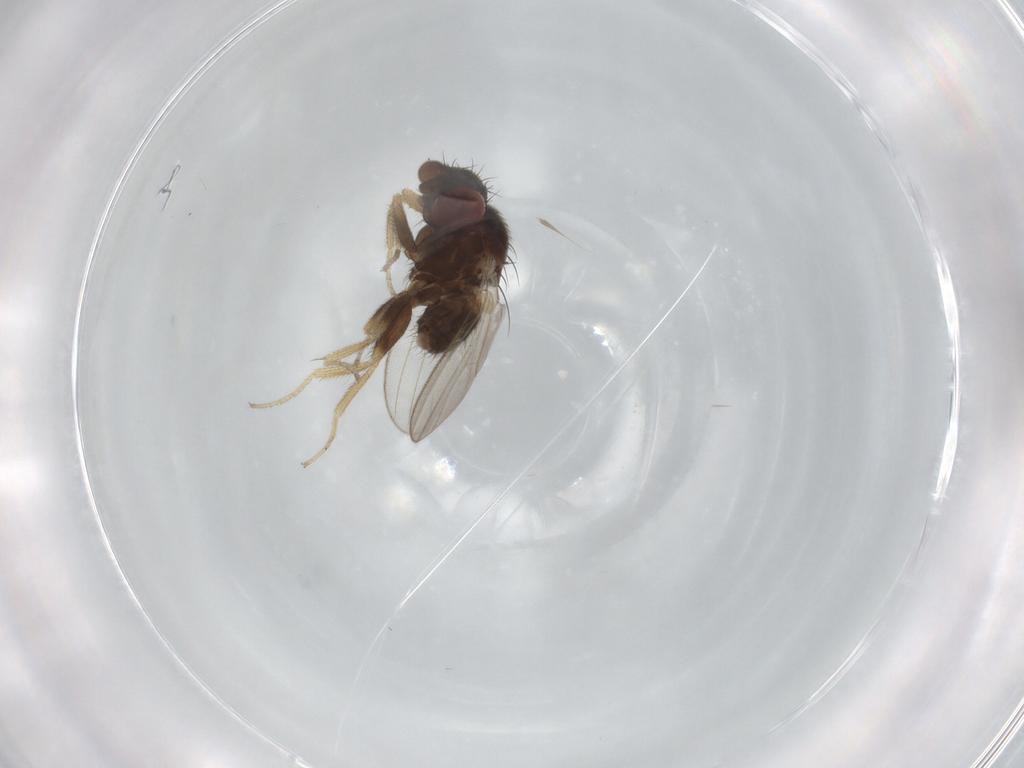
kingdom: Animalia
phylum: Arthropoda
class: Insecta
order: Diptera
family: Milichiidae
